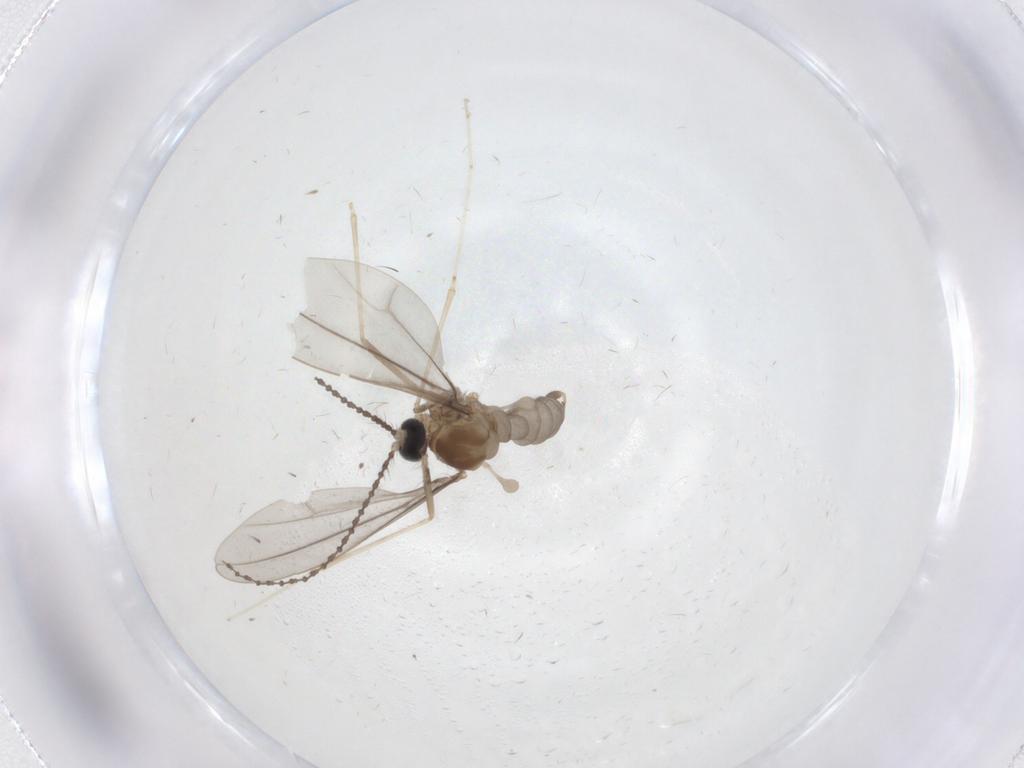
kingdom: Animalia
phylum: Arthropoda
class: Insecta
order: Diptera
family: Cecidomyiidae
